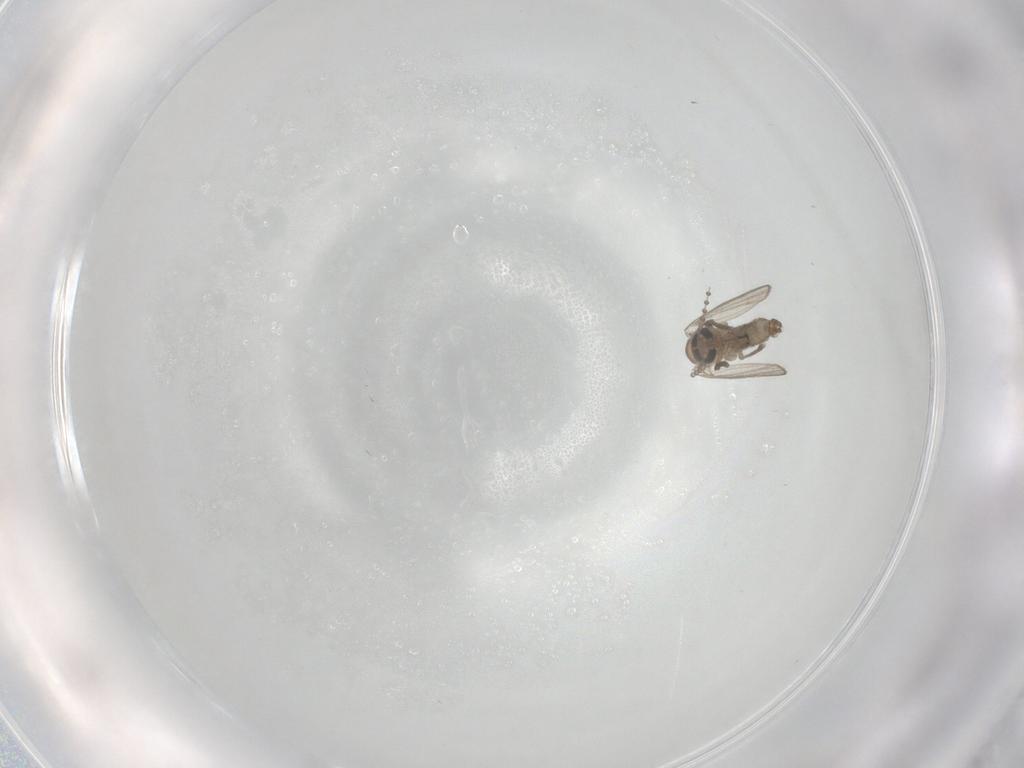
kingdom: Animalia
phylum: Arthropoda
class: Insecta
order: Diptera
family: Psychodidae
